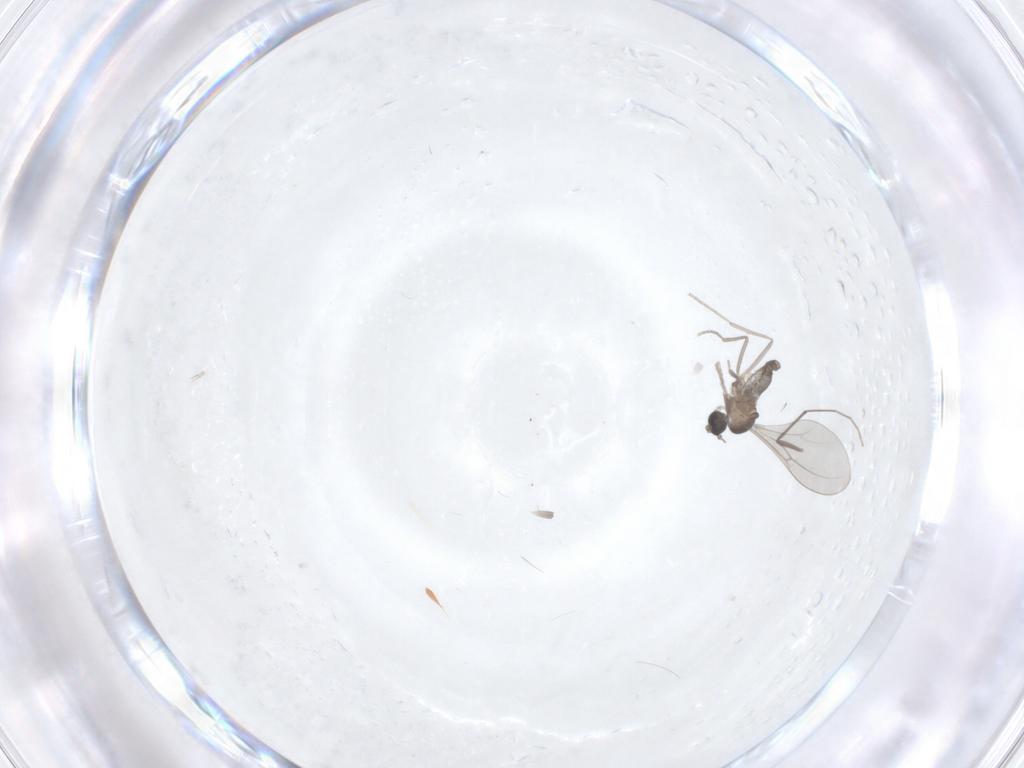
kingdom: Animalia
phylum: Arthropoda
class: Insecta
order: Diptera
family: Chironomidae
